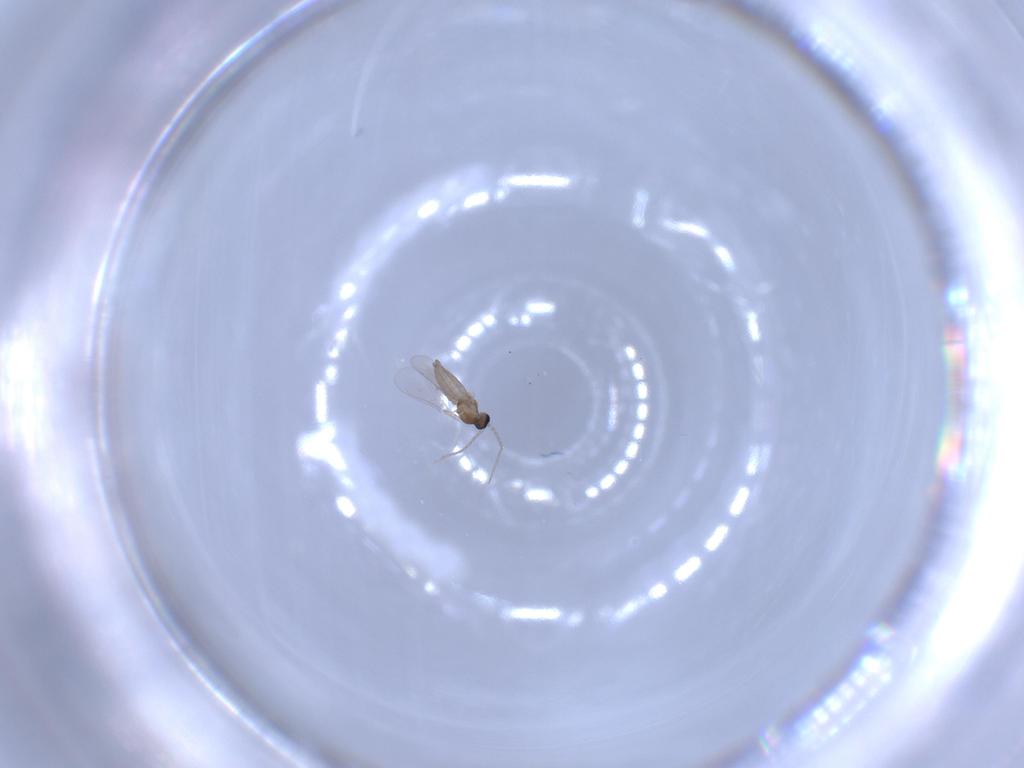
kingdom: Animalia
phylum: Arthropoda
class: Insecta
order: Diptera
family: Cecidomyiidae
